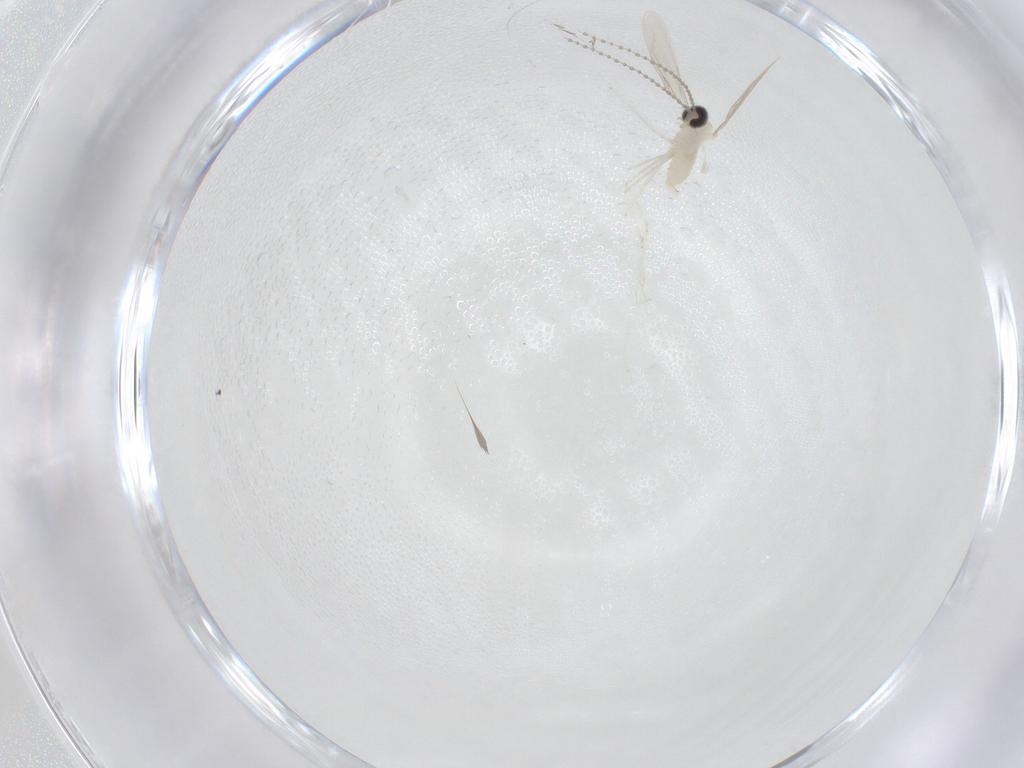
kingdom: Animalia
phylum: Arthropoda
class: Insecta
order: Diptera
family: Cecidomyiidae
